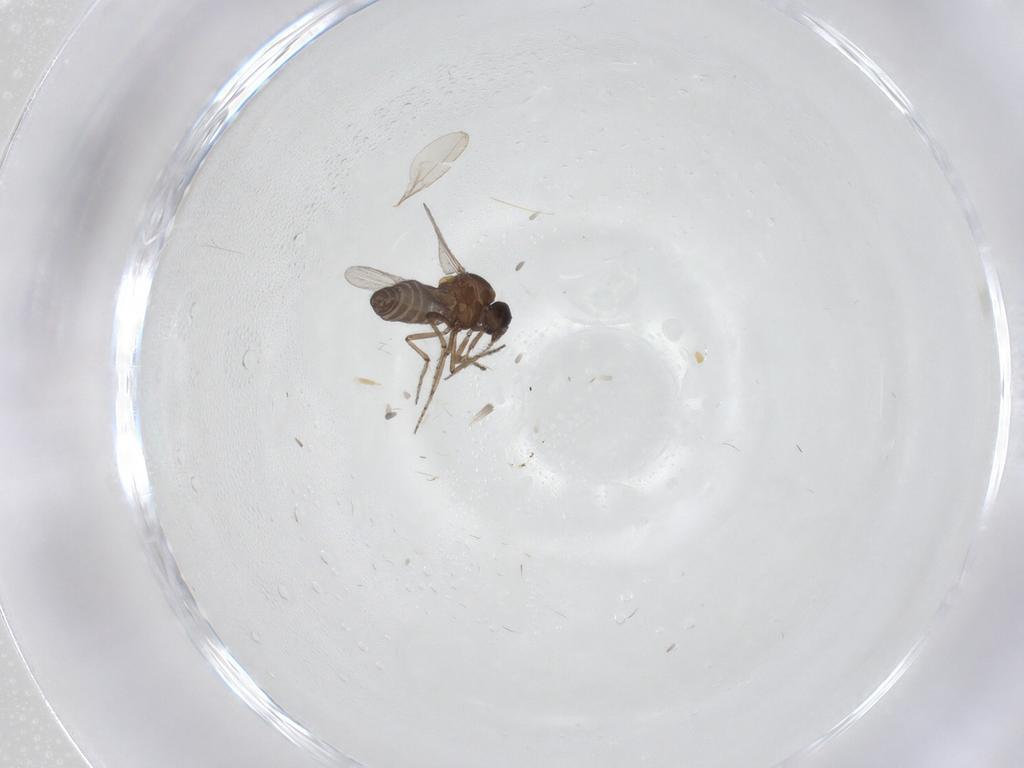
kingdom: Animalia
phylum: Arthropoda
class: Insecta
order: Diptera
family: Ceratopogonidae
